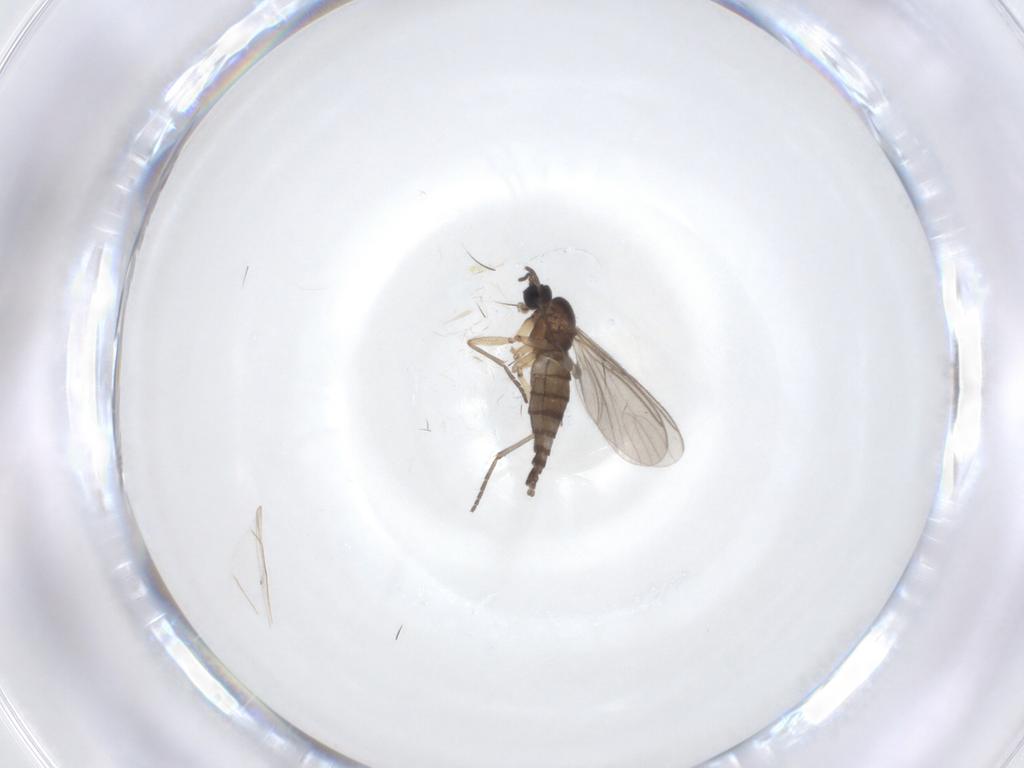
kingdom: Animalia
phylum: Arthropoda
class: Insecta
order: Diptera
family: Sciaridae
